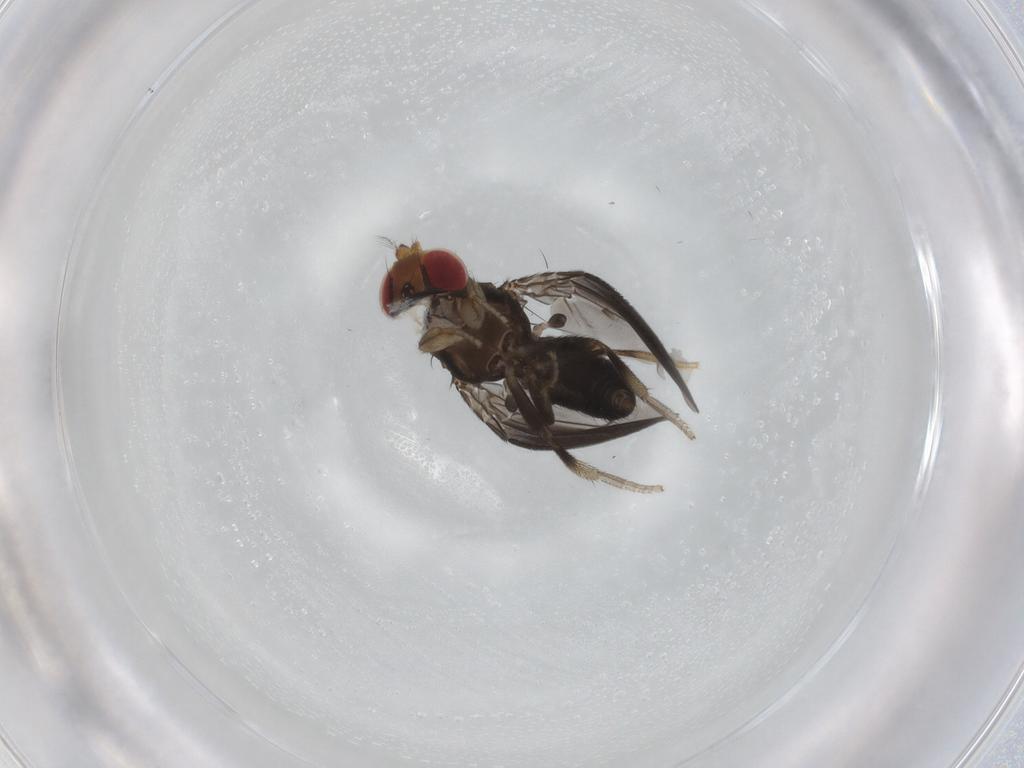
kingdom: Animalia
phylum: Arthropoda
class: Insecta
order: Diptera
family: Drosophilidae
